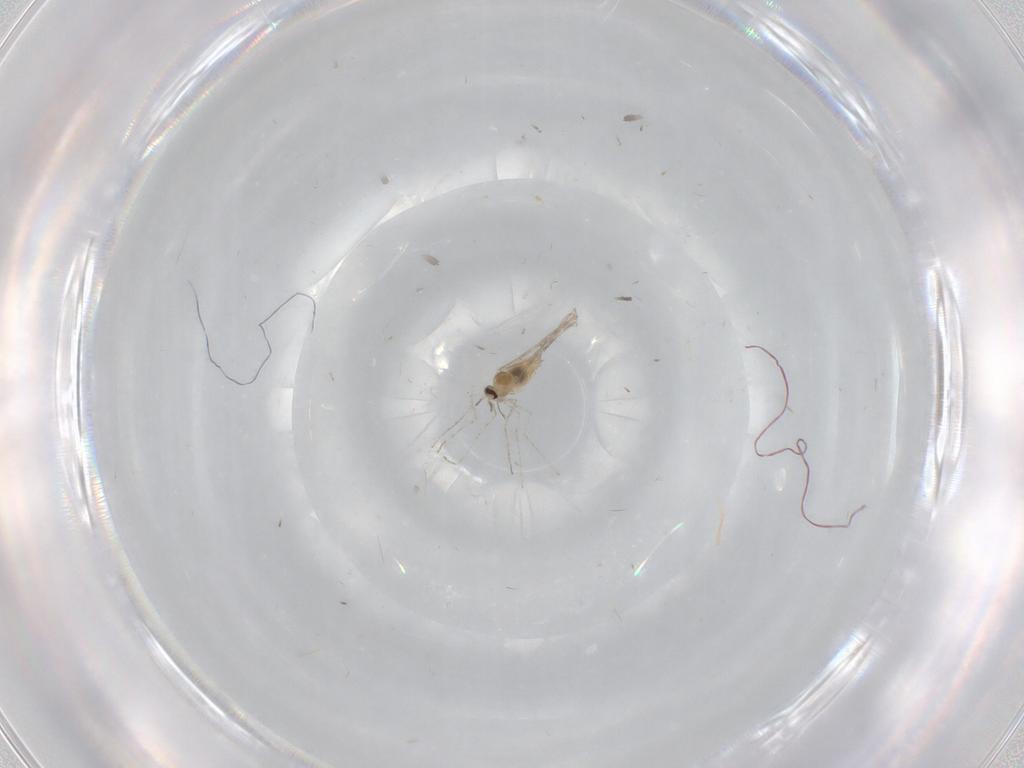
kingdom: Animalia
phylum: Arthropoda
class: Insecta
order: Diptera
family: Cecidomyiidae
